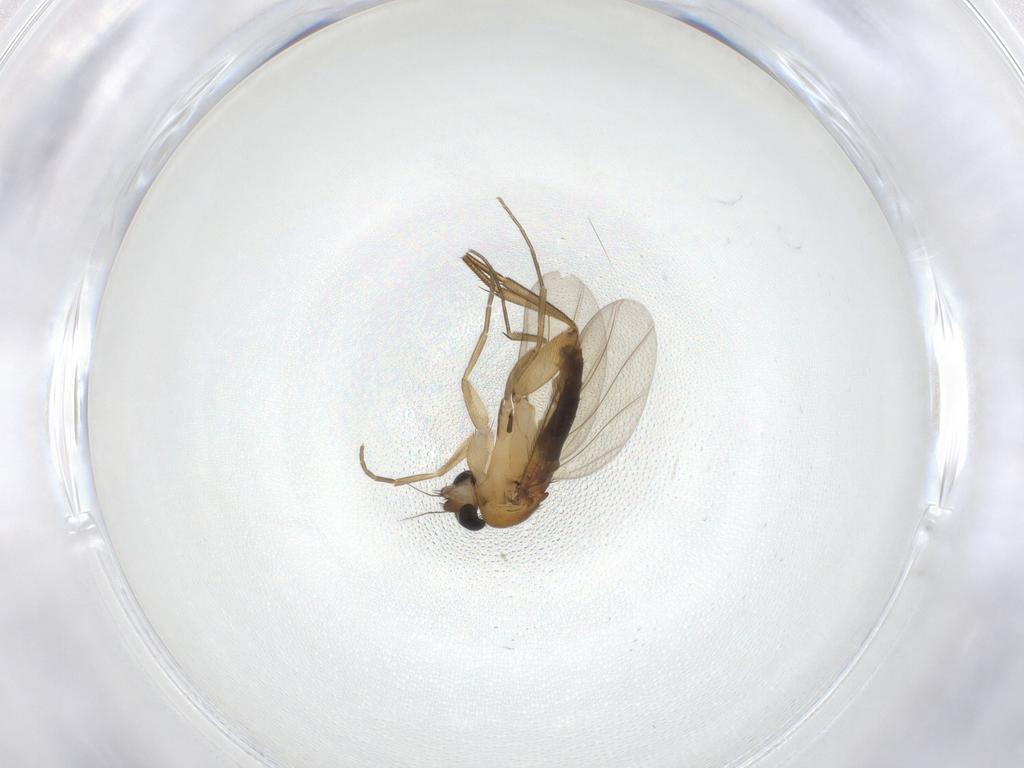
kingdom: Animalia
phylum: Arthropoda
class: Insecta
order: Diptera
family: Phoridae
